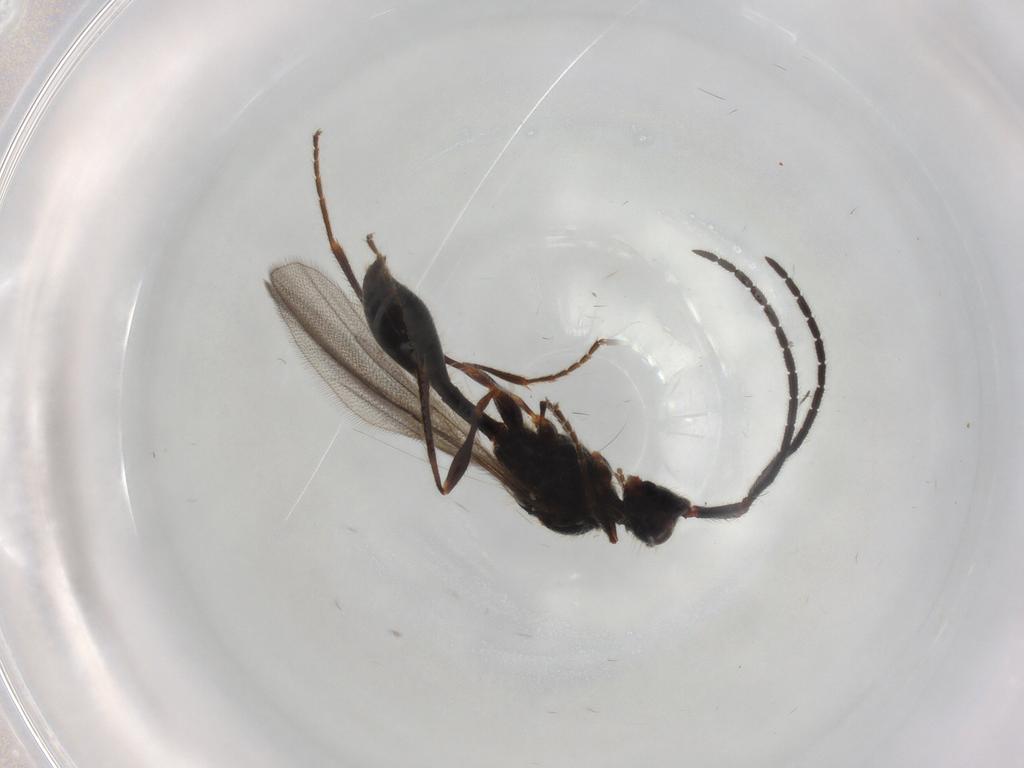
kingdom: Animalia
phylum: Arthropoda
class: Insecta
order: Hymenoptera
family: Diapriidae
